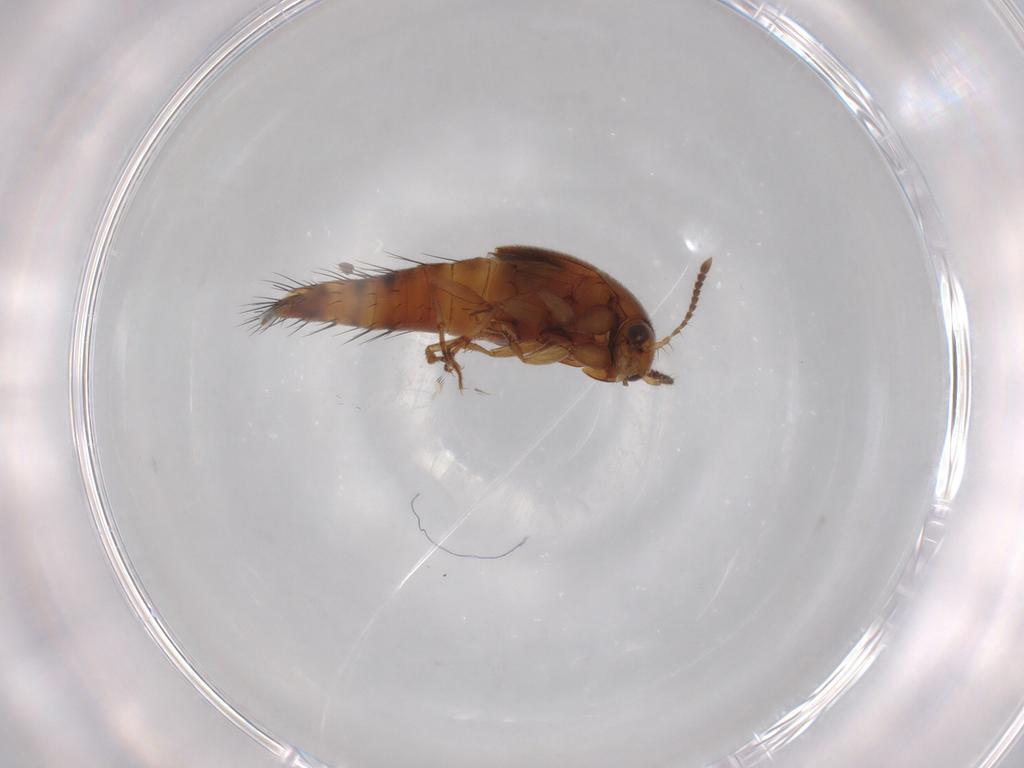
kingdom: Animalia
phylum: Arthropoda
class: Insecta
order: Coleoptera
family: Staphylinidae
